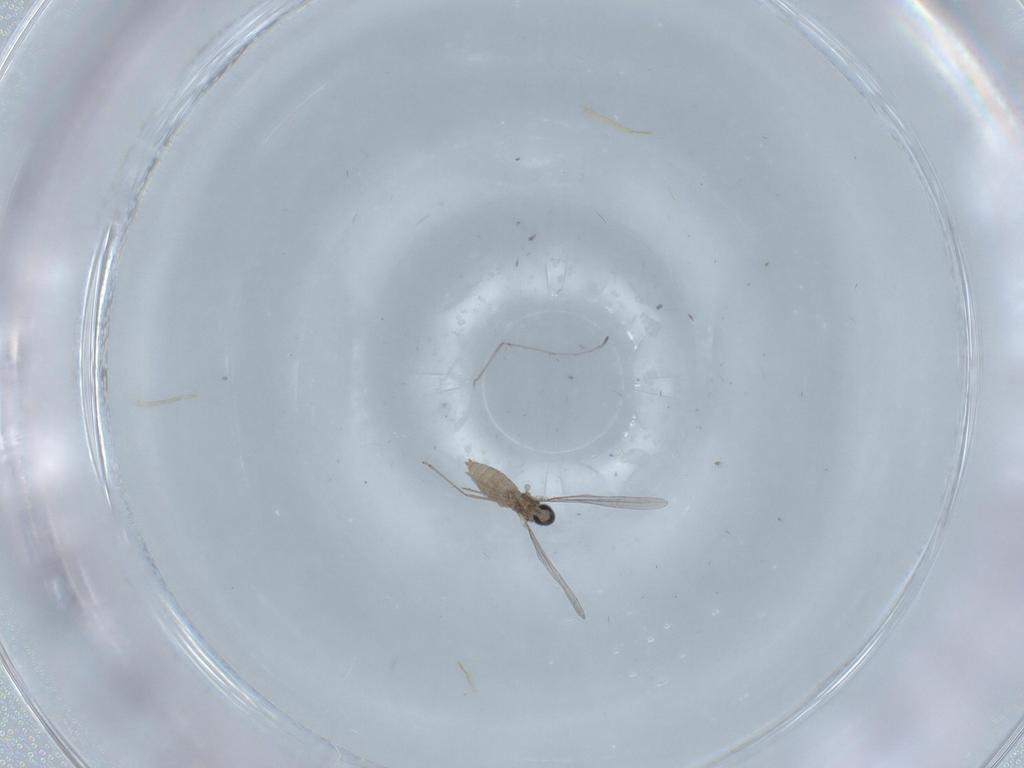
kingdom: Animalia
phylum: Arthropoda
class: Insecta
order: Diptera
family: Cecidomyiidae
